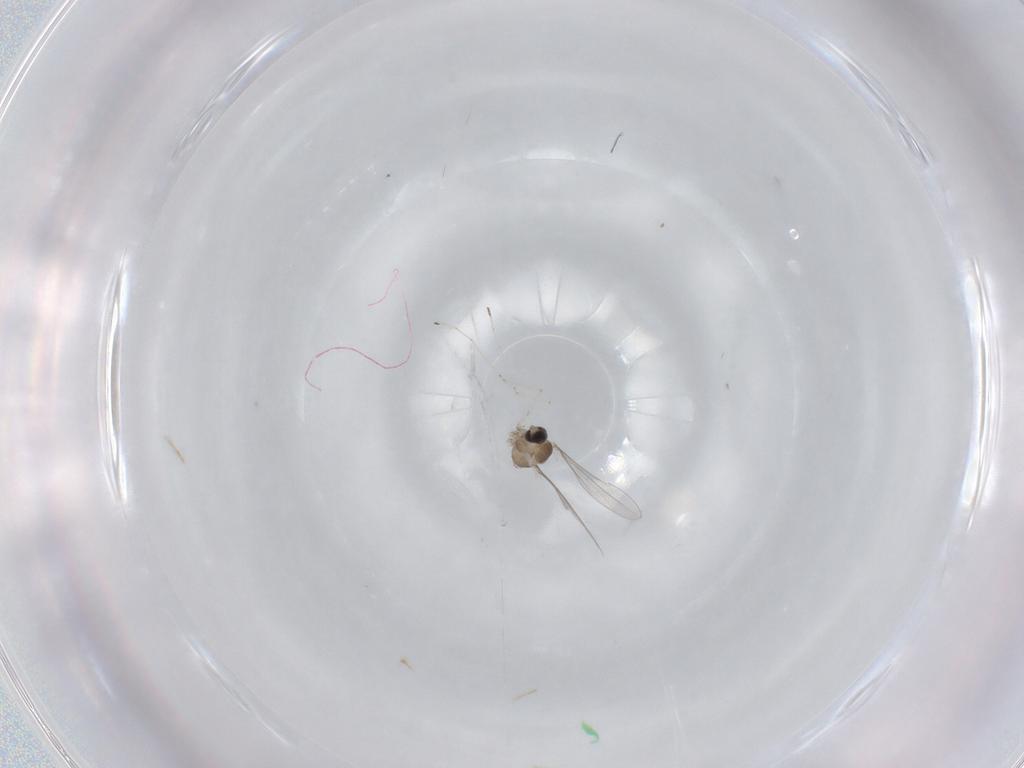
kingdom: Animalia
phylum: Arthropoda
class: Insecta
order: Diptera
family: Cecidomyiidae
